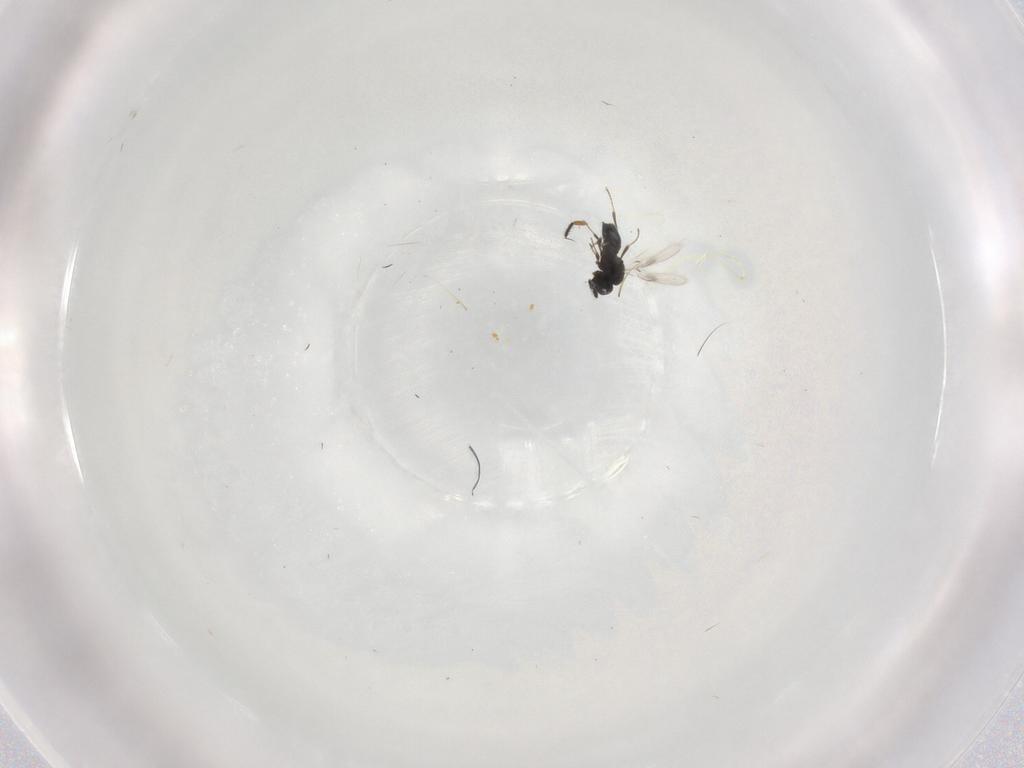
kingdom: Animalia
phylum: Arthropoda
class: Insecta
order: Hymenoptera
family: Scelionidae
